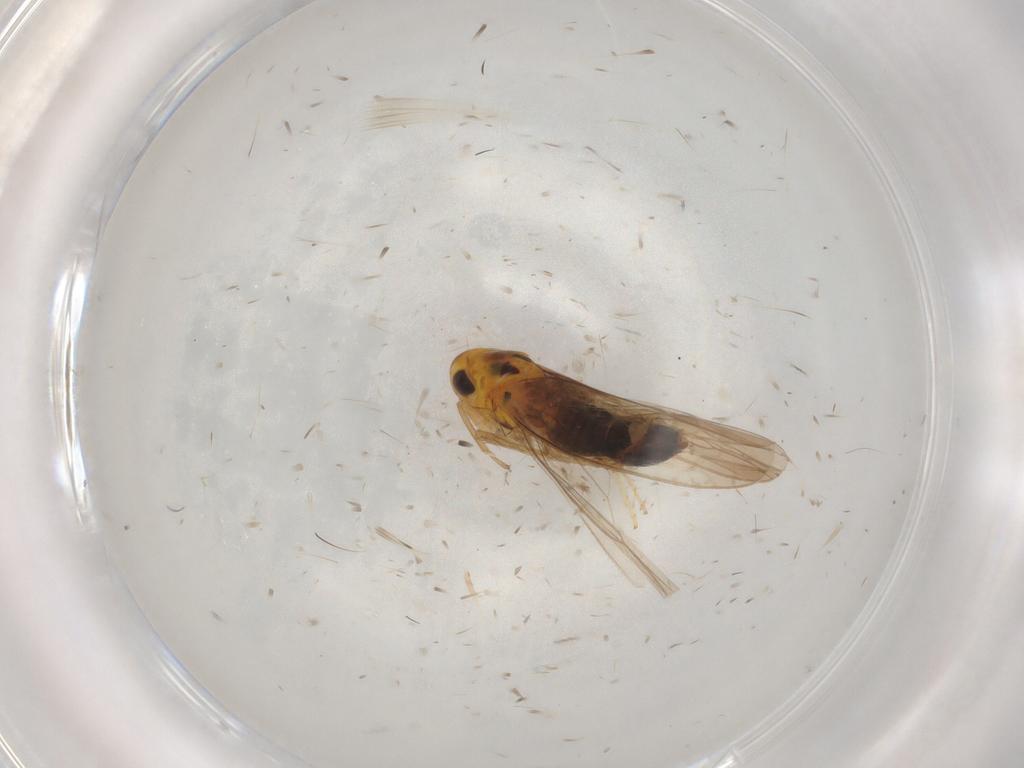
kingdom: Animalia
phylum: Arthropoda
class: Insecta
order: Hemiptera
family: Cicadellidae
